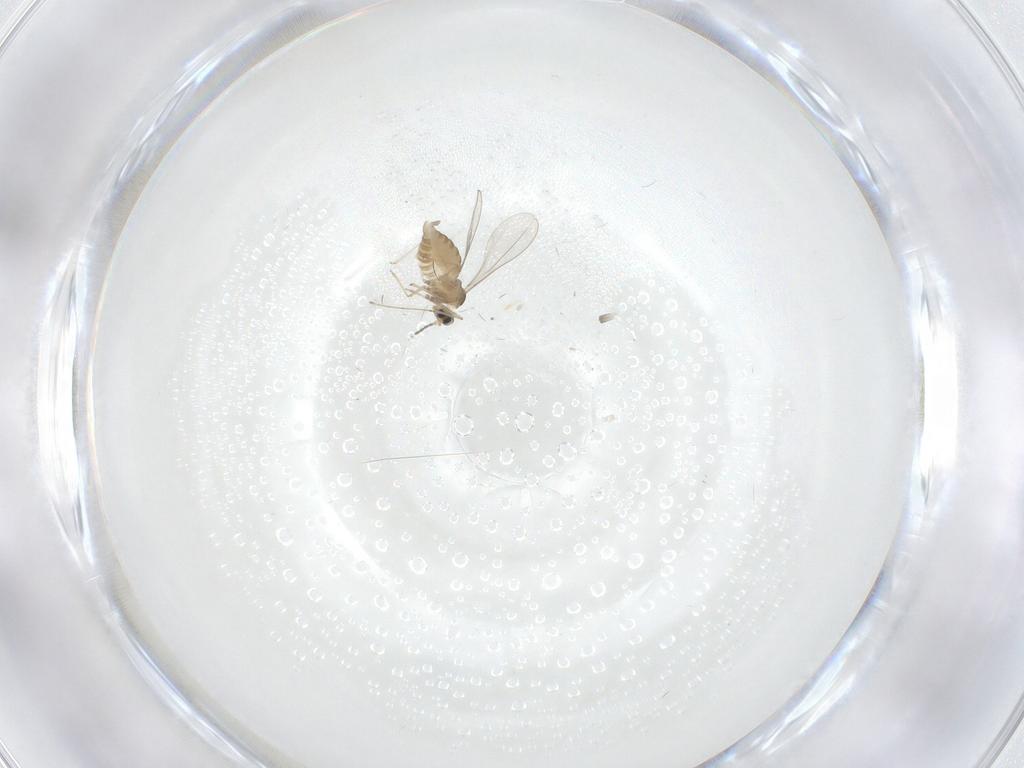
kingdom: Animalia
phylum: Arthropoda
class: Insecta
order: Diptera
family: Cecidomyiidae
